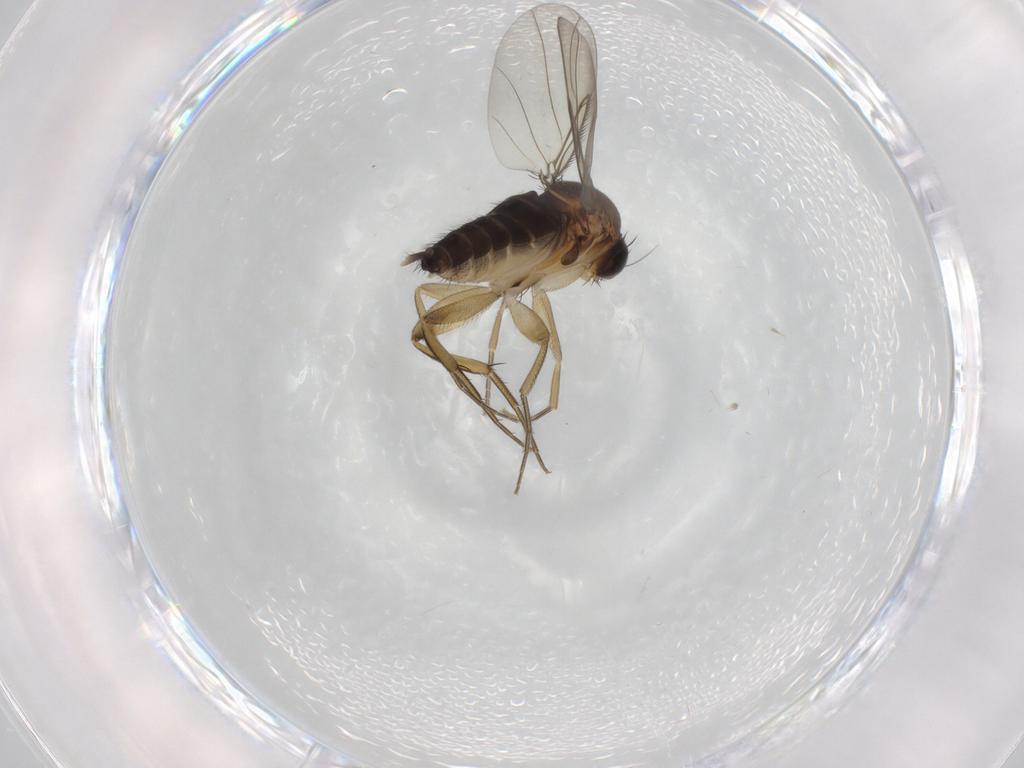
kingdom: Animalia
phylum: Arthropoda
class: Insecta
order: Diptera
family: Phoridae
